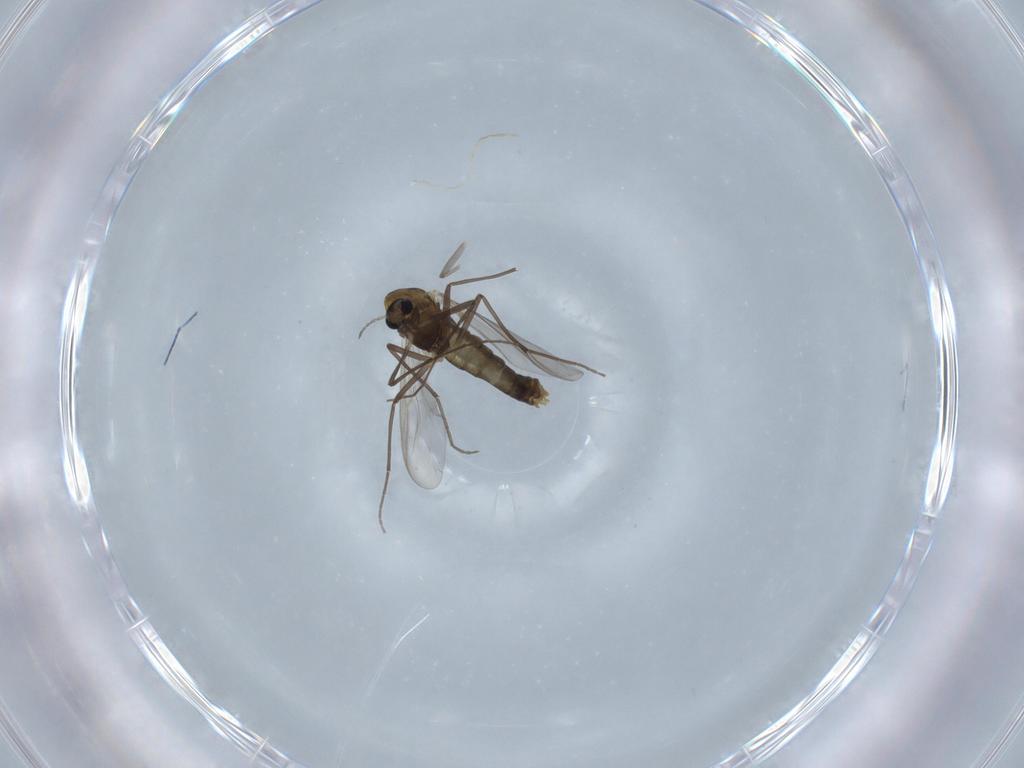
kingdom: Animalia
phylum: Arthropoda
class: Insecta
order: Diptera
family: Chironomidae
